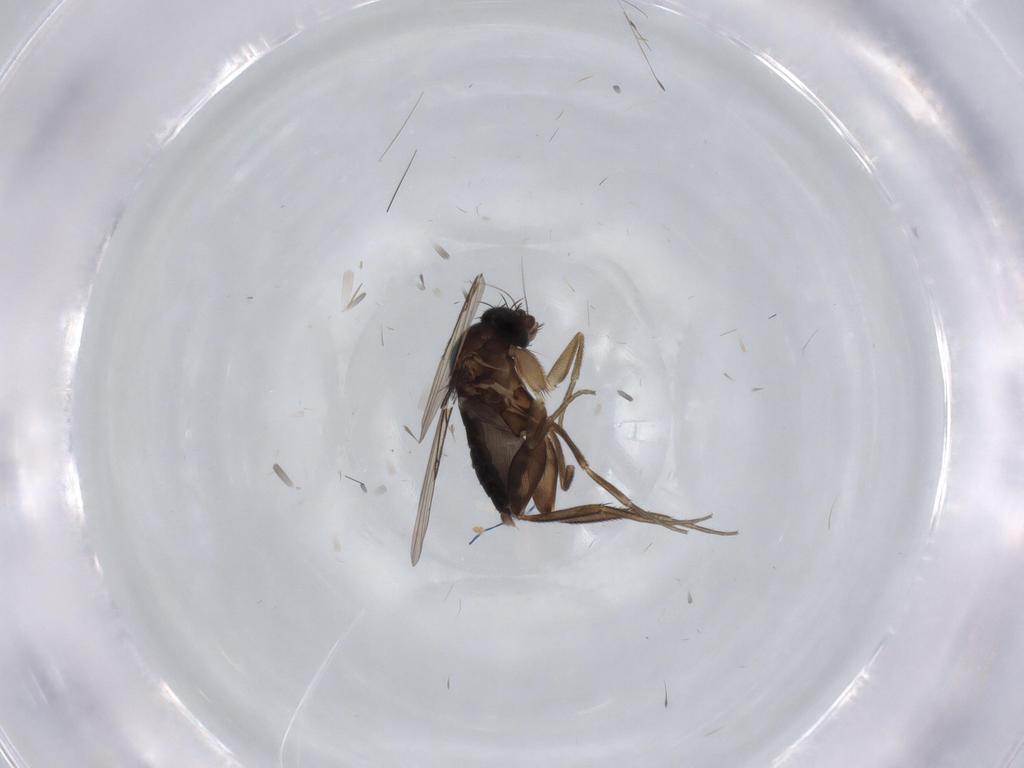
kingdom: Animalia
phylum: Arthropoda
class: Insecta
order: Diptera
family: Phoridae
